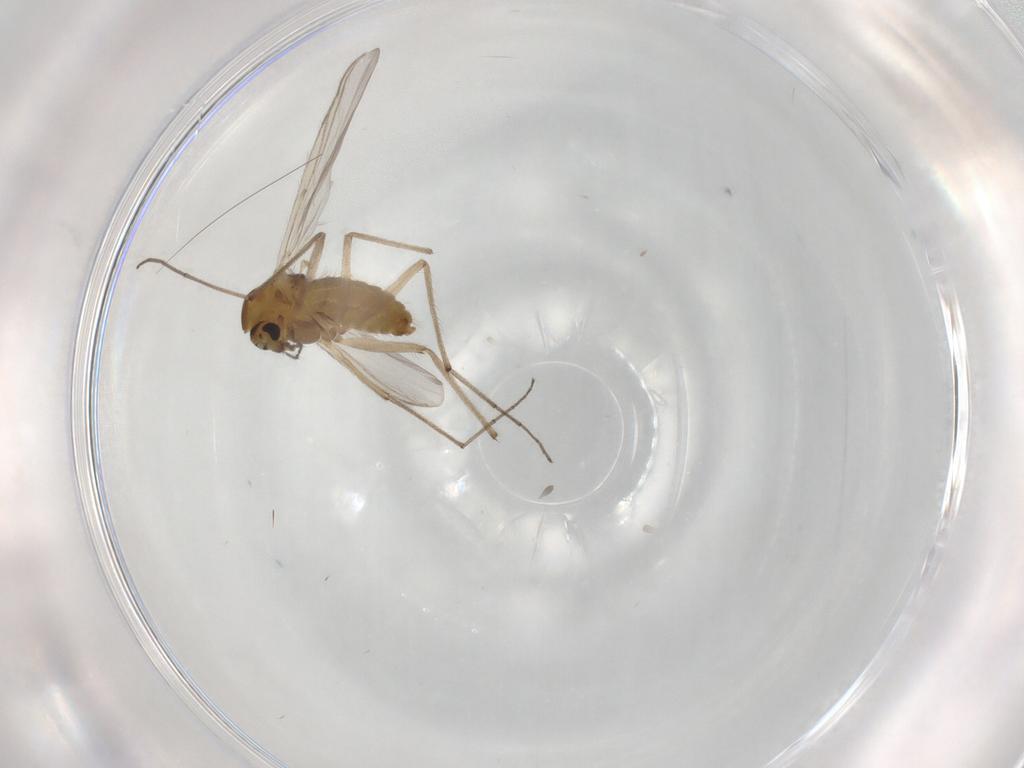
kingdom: Animalia
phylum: Arthropoda
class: Insecta
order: Diptera
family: Chironomidae
